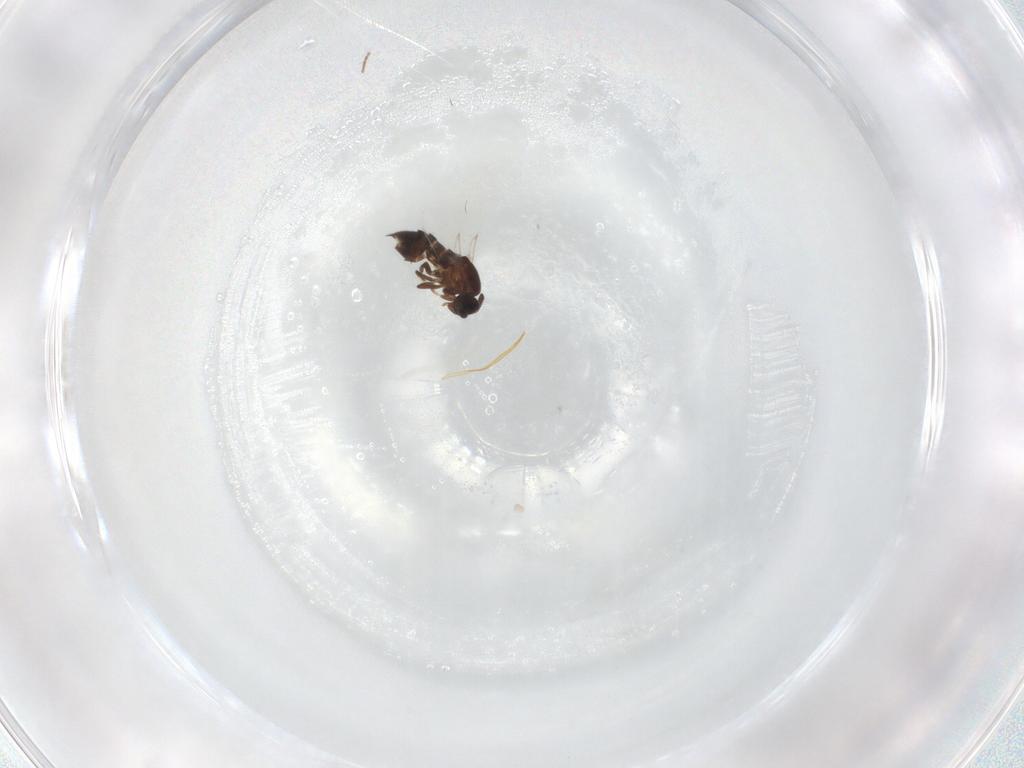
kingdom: Animalia
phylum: Arthropoda
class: Insecta
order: Diptera
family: Scatopsidae
